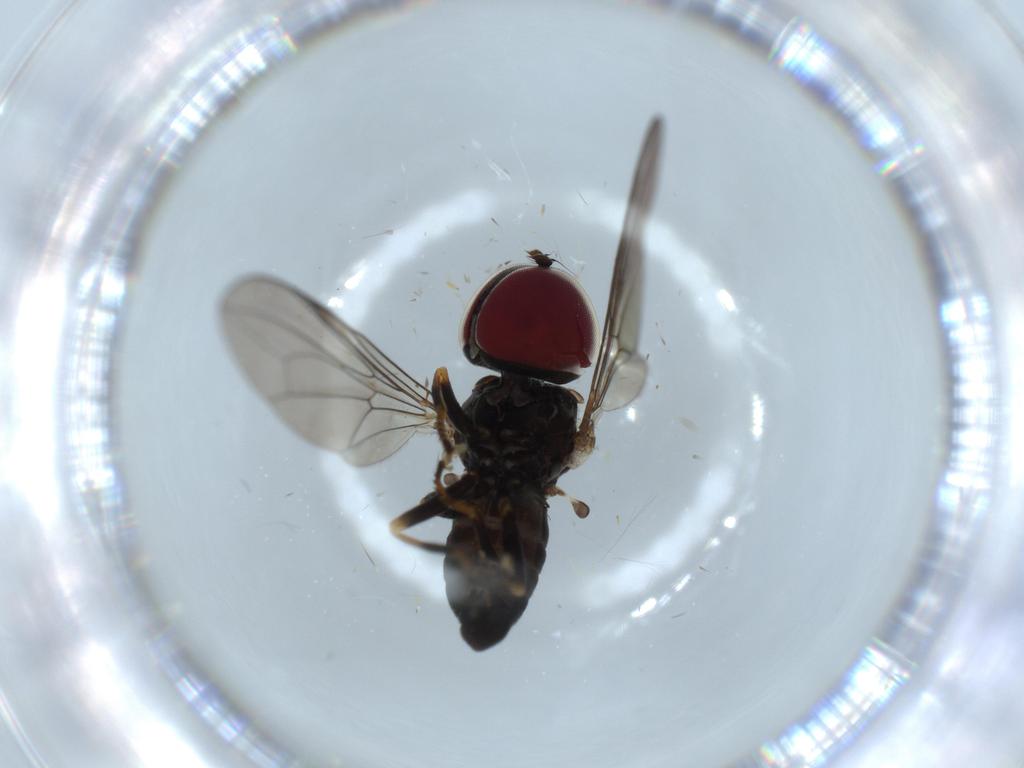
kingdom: Animalia
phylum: Arthropoda
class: Insecta
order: Diptera
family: Pipunculidae
